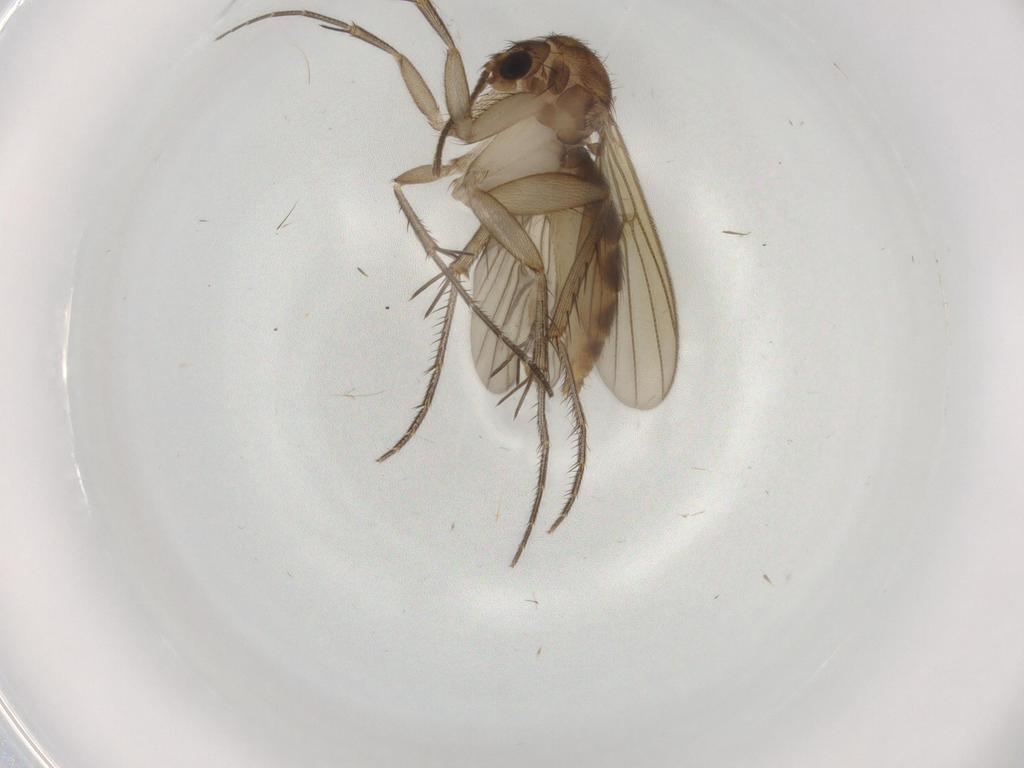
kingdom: Animalia
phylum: Arthropoda
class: Insecta
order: Diptera
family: Mycetophilidae
